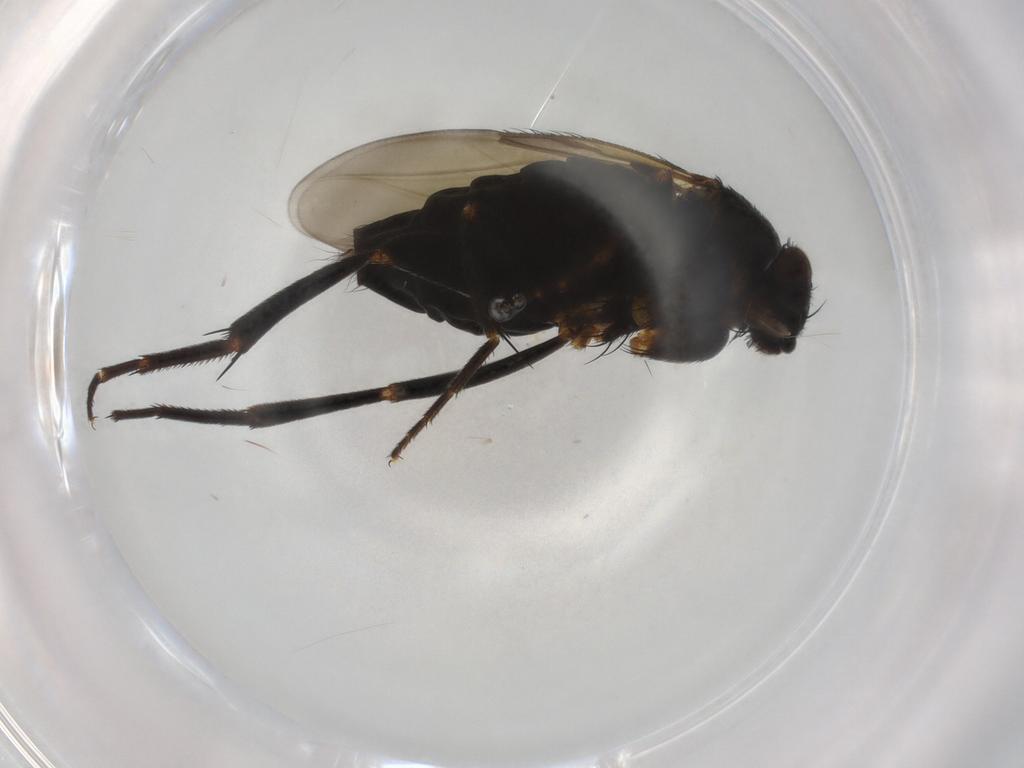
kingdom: Animalia
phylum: Arthropoda
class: Insecta
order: Diptera
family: Phoridae
